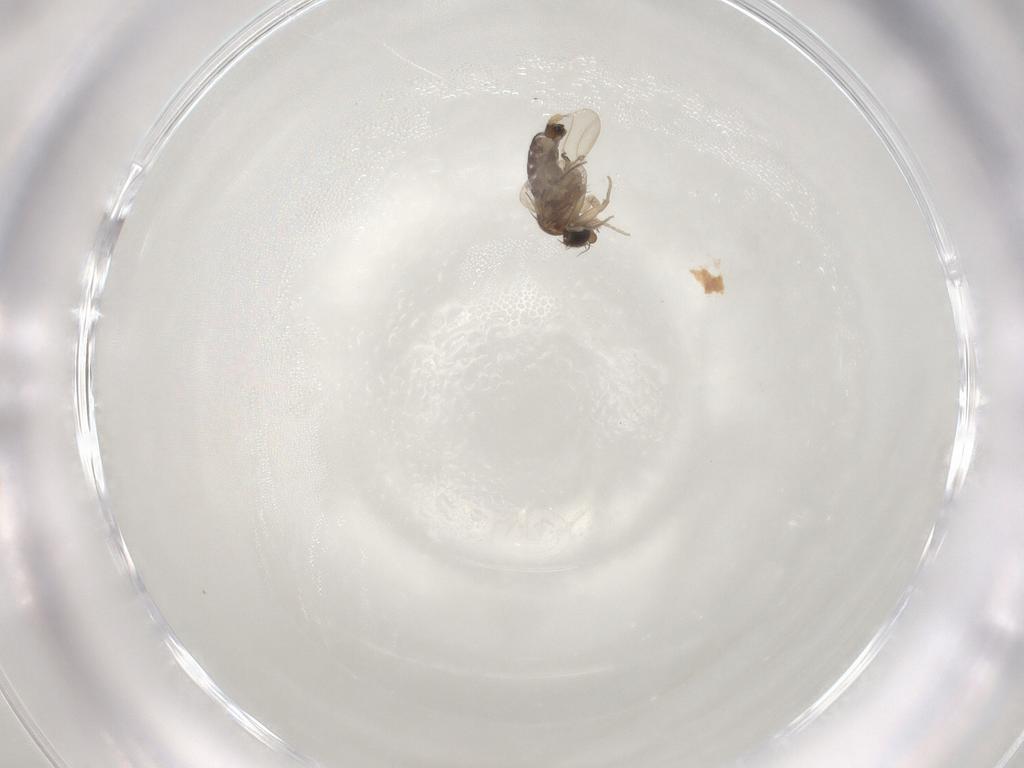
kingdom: Animalia
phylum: Arthropoda
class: Insecta
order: Diptera
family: Phoridae
